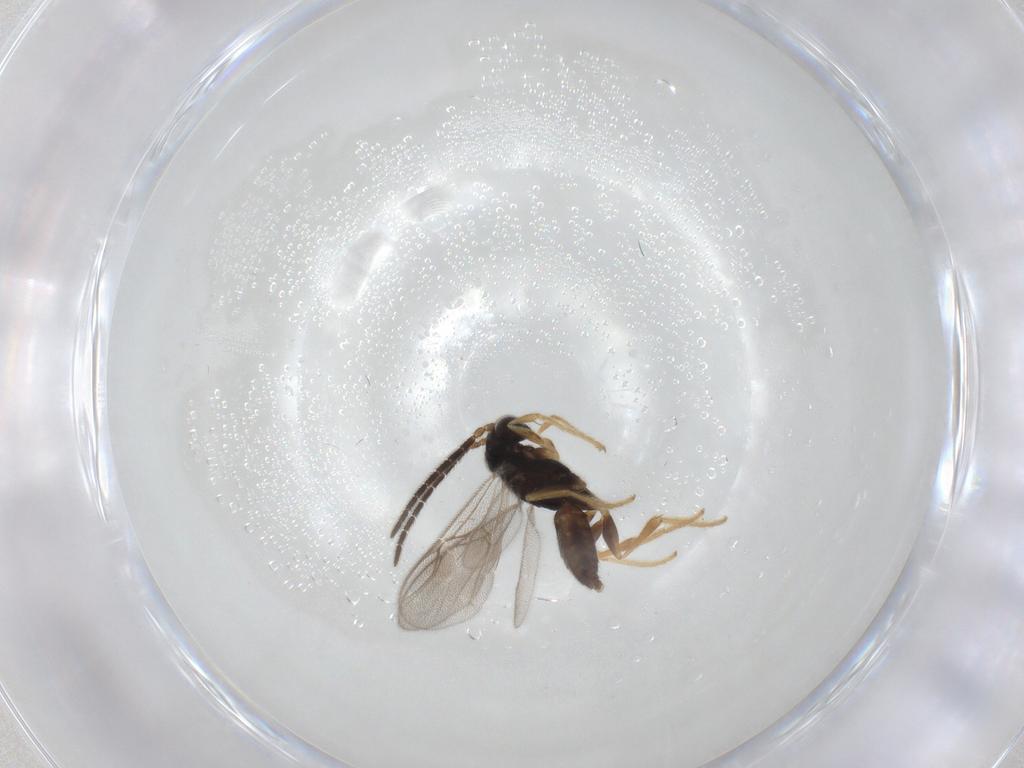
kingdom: Animalia
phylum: Arthropoda
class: Insecta
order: Hymenoptera
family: Dryinidae
